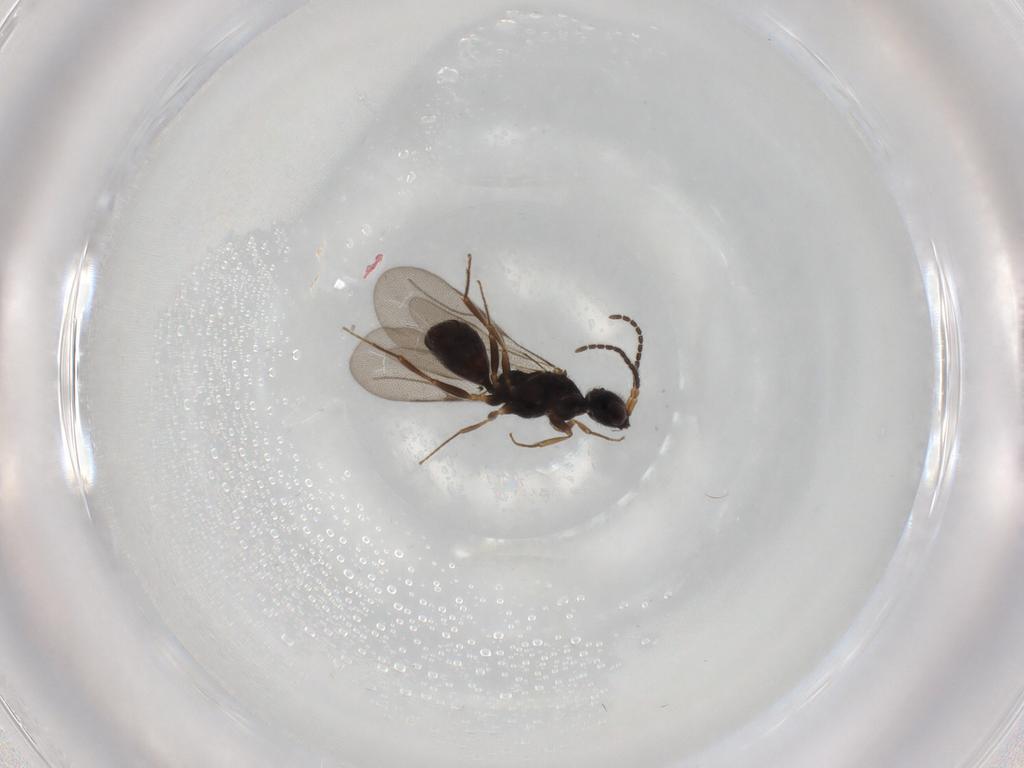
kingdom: Animalia
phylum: Arthropoda
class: Insecta
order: Hymenoptera
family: Bethylidae
